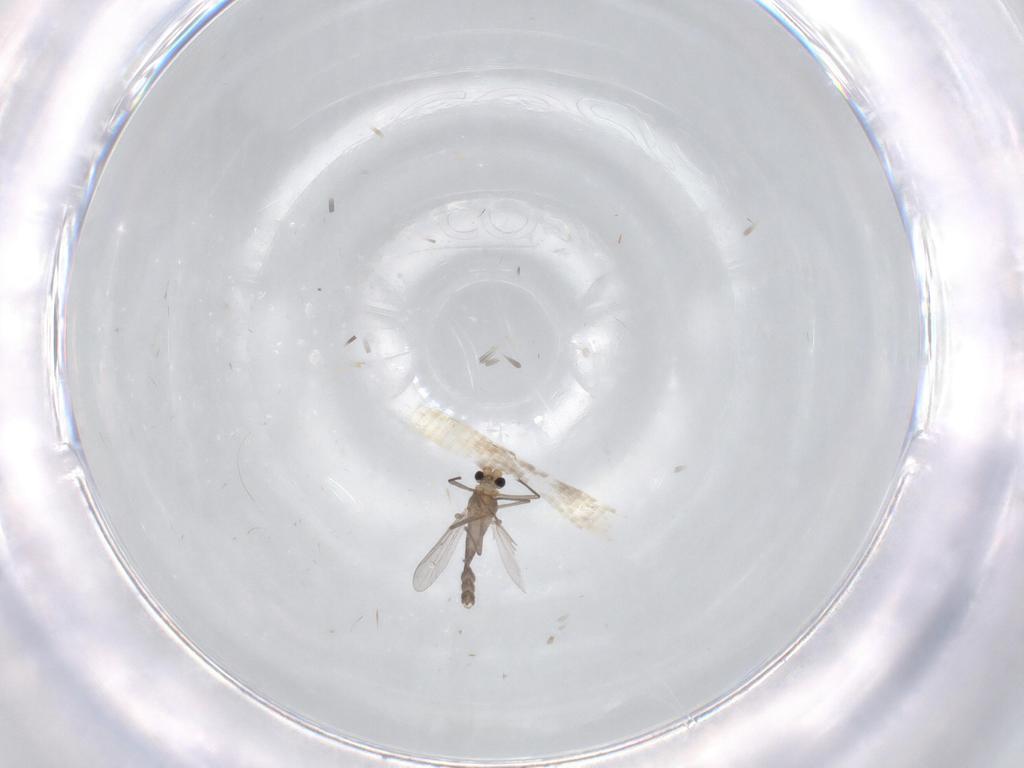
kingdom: Animalia
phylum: Arthropoda
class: Insecta
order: Diptera
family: Chironomidae
